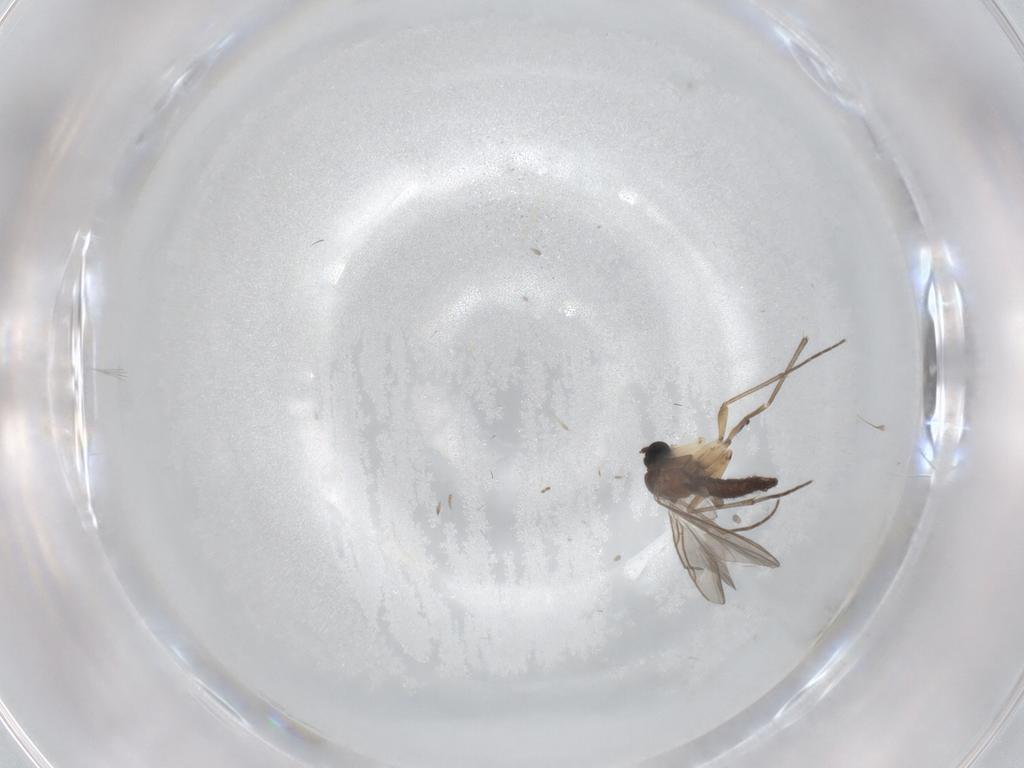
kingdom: Animalia
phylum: Arthropoda
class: Insecta
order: Diptera
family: Sciaridae
